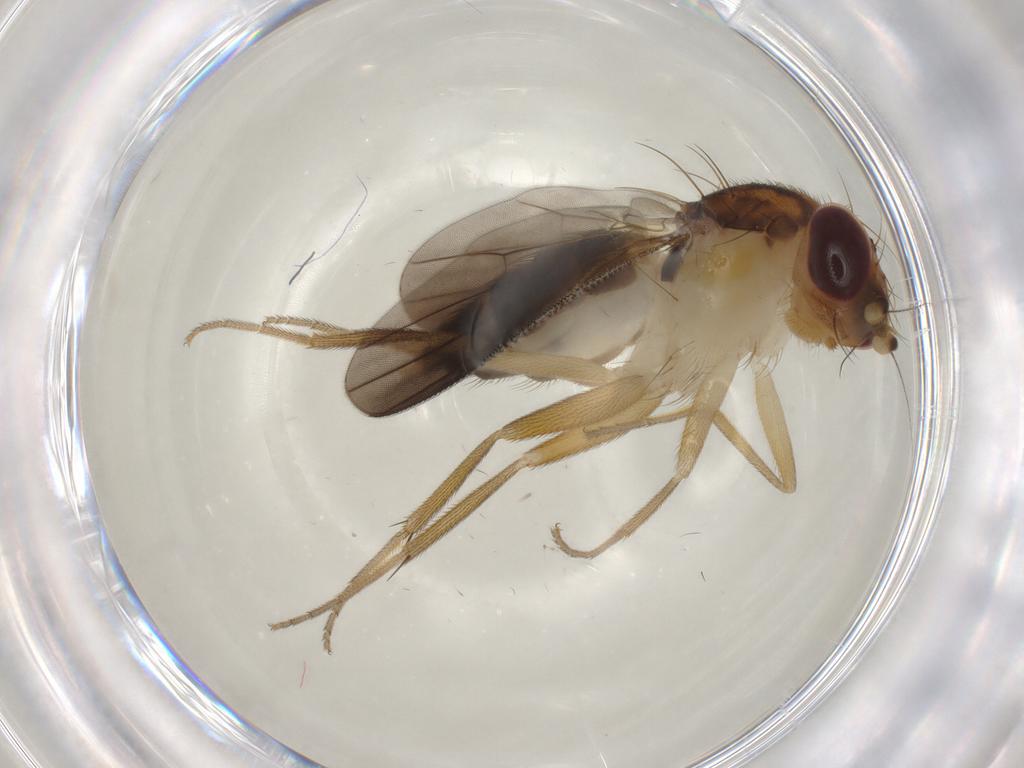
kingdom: Animalia
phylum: Arthropoda
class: Insecta
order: Diptera
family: Clusiidae
